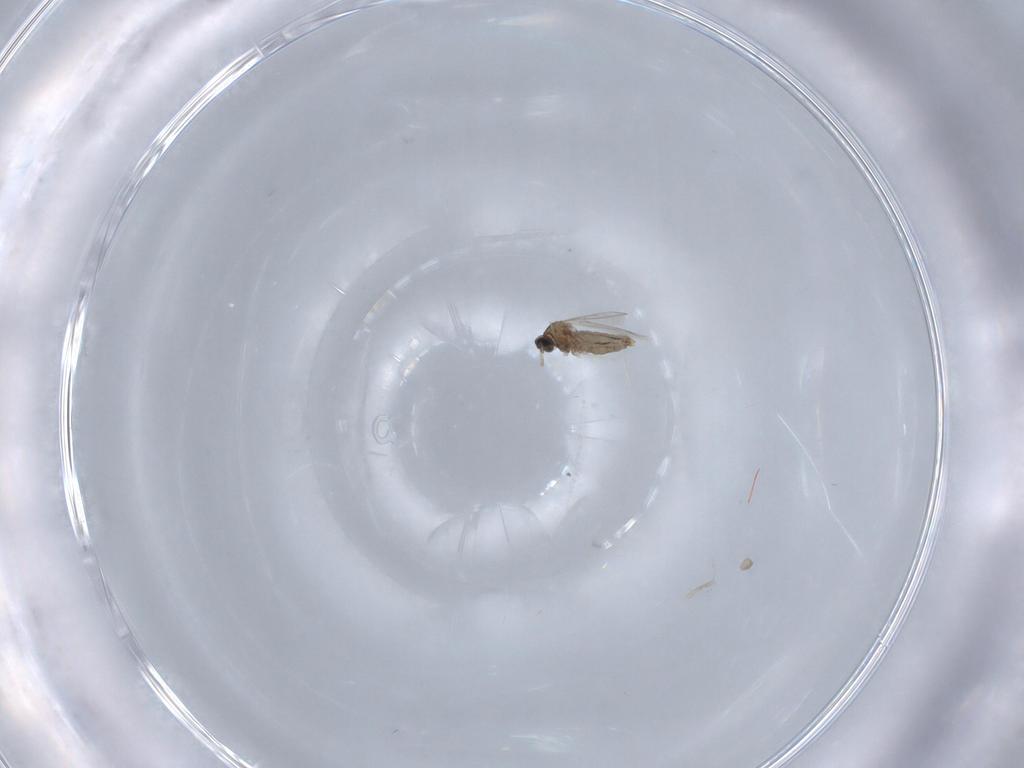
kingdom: Animalia
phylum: Arthropoda
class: Insecta
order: Diptera
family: Cecidomyiidae
